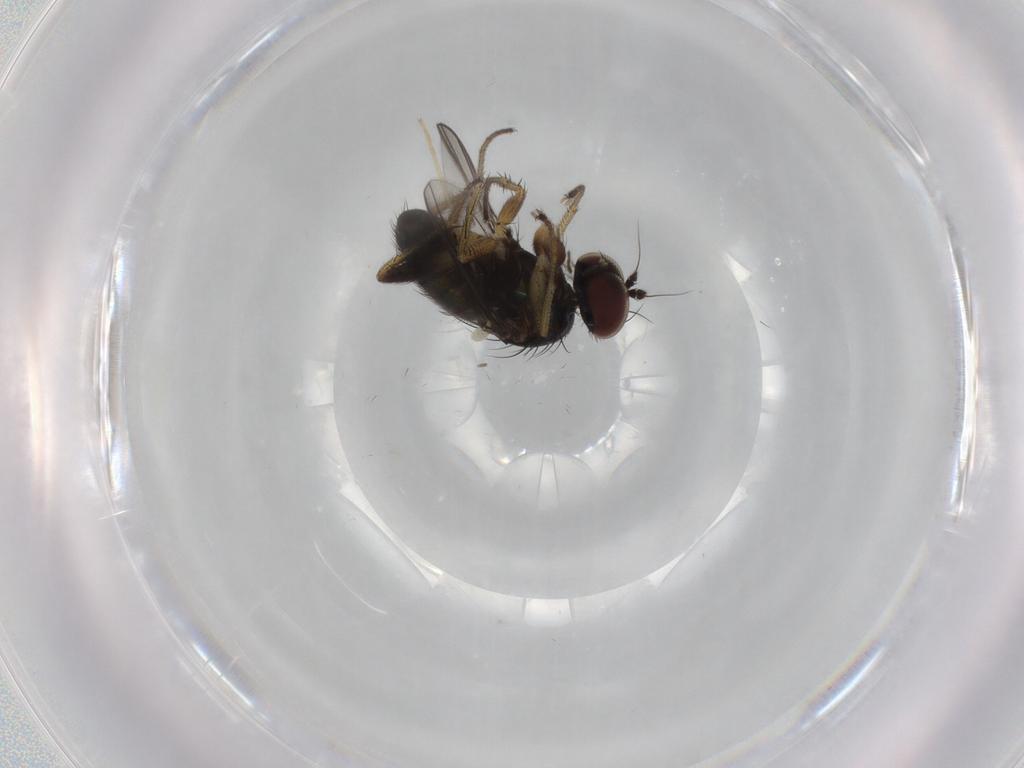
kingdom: Animalia
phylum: Arthropoda
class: Insecta
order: Diptera
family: Dolichopodidae
